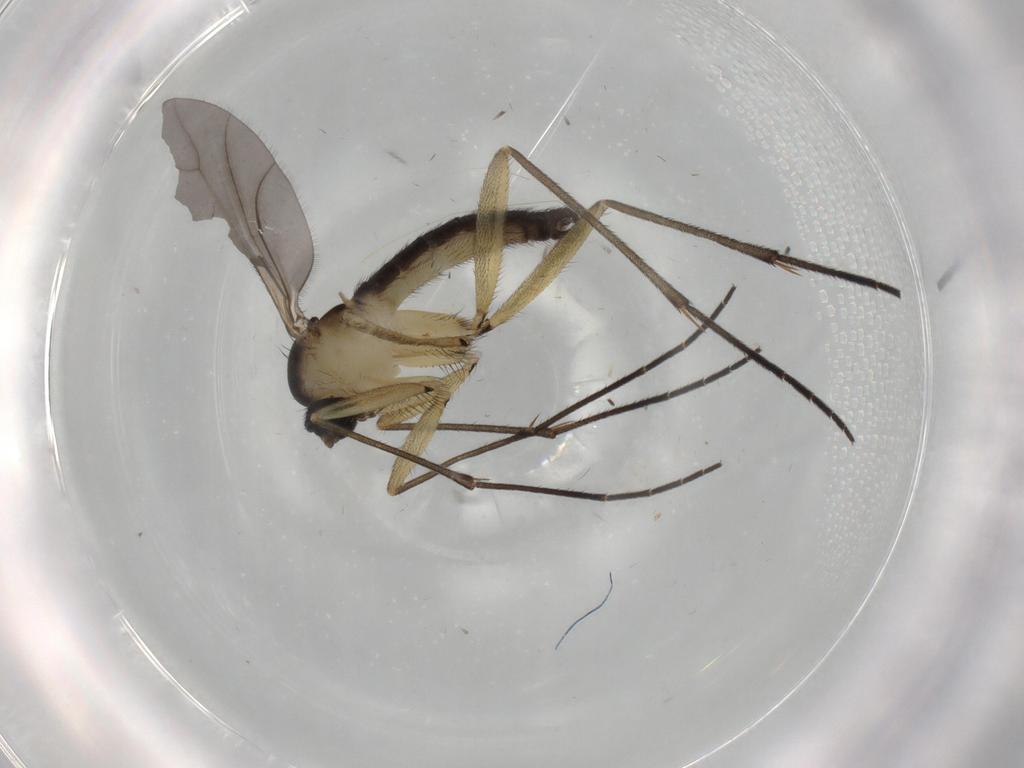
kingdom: Animalia
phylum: Arthropoda
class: Insecta
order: Diptera
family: Sciaridae
